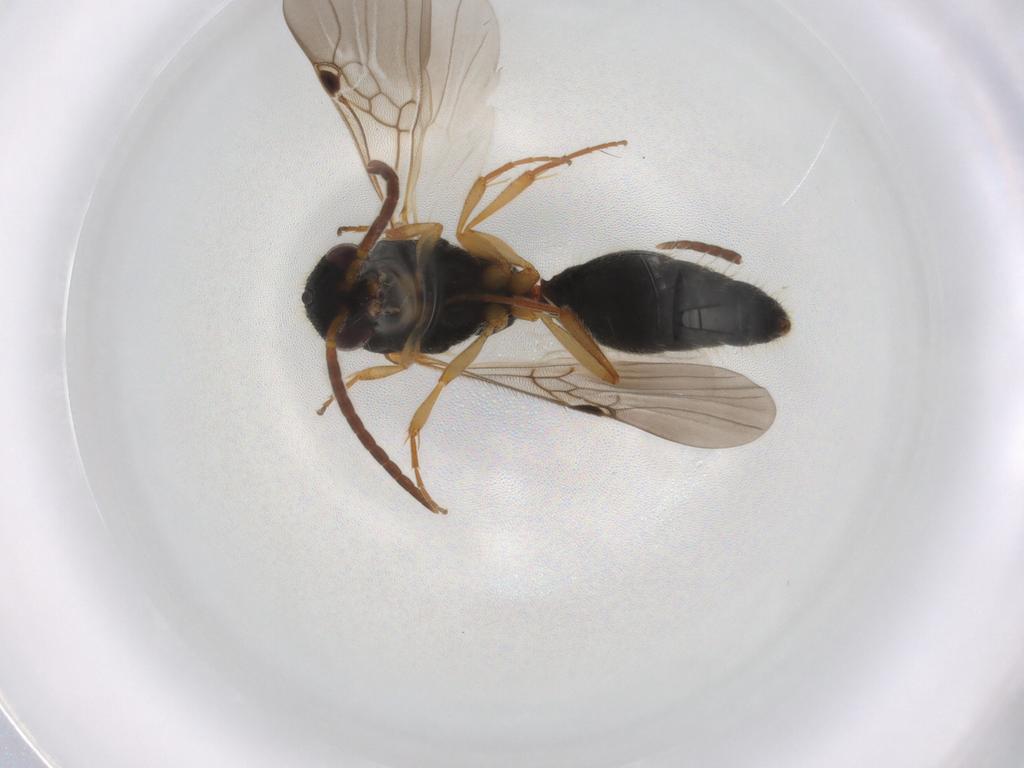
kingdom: Animalia
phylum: Arthropoda
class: Insecta
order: Hymenoptera
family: Mutillidae
